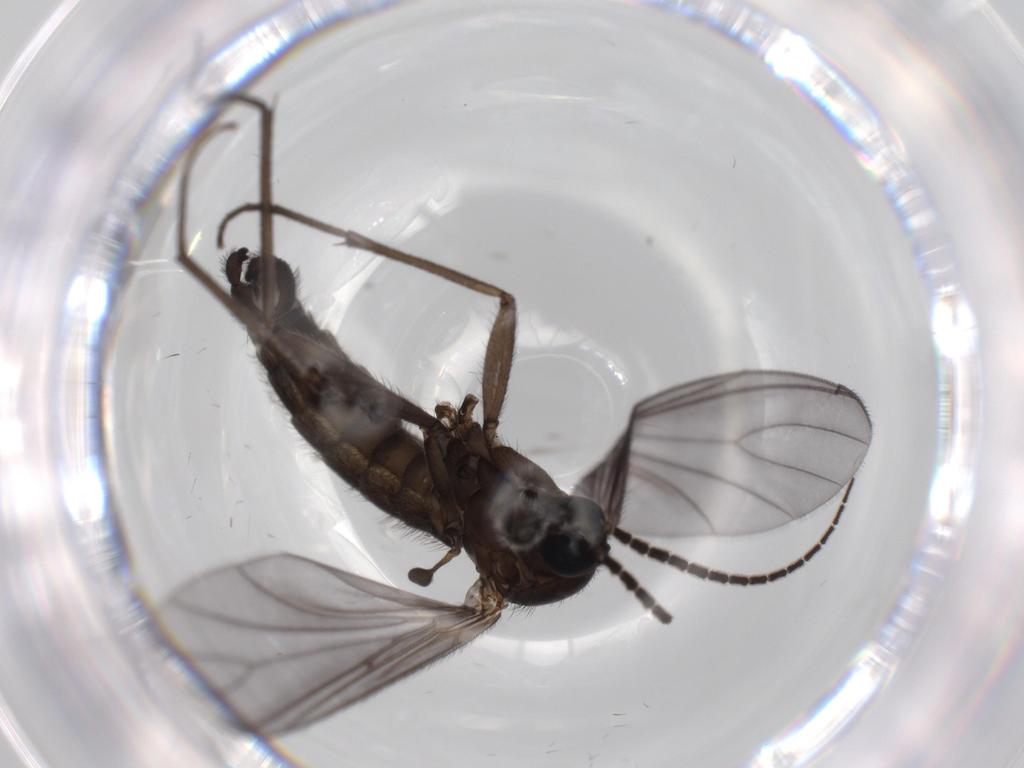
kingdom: Animalia
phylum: Arthropoda
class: Insecta
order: Diptera
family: Sciaridae
